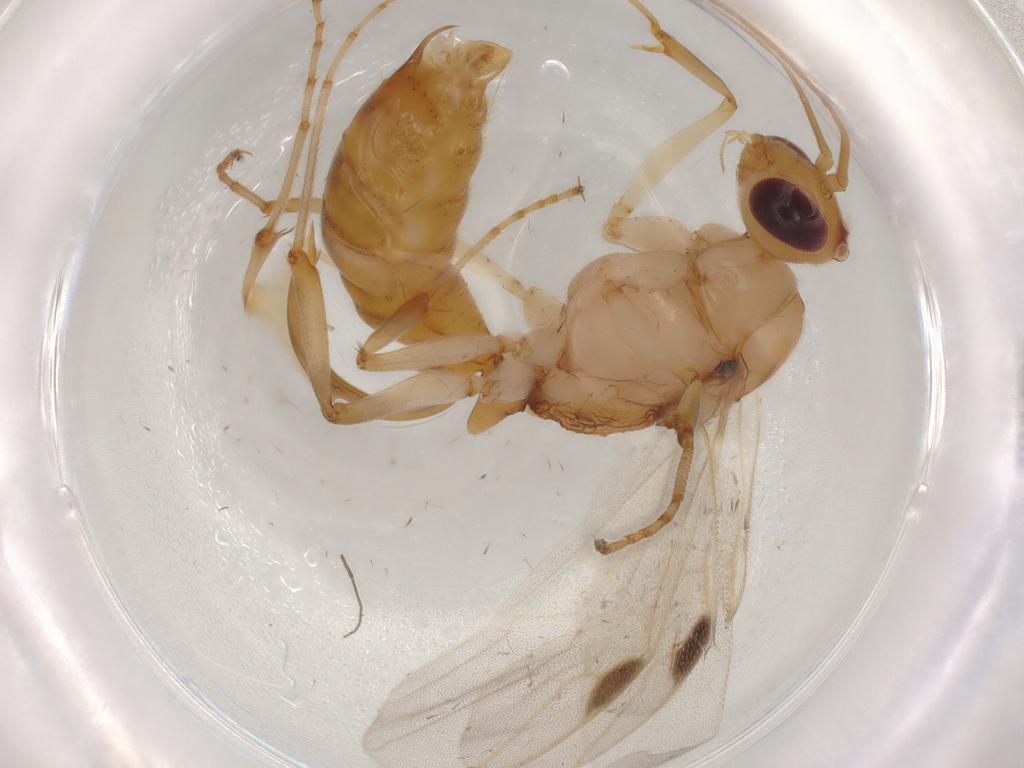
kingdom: Animalia
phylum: Arthropoda
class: Insecta
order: Hymenoptera
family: Formicidae
